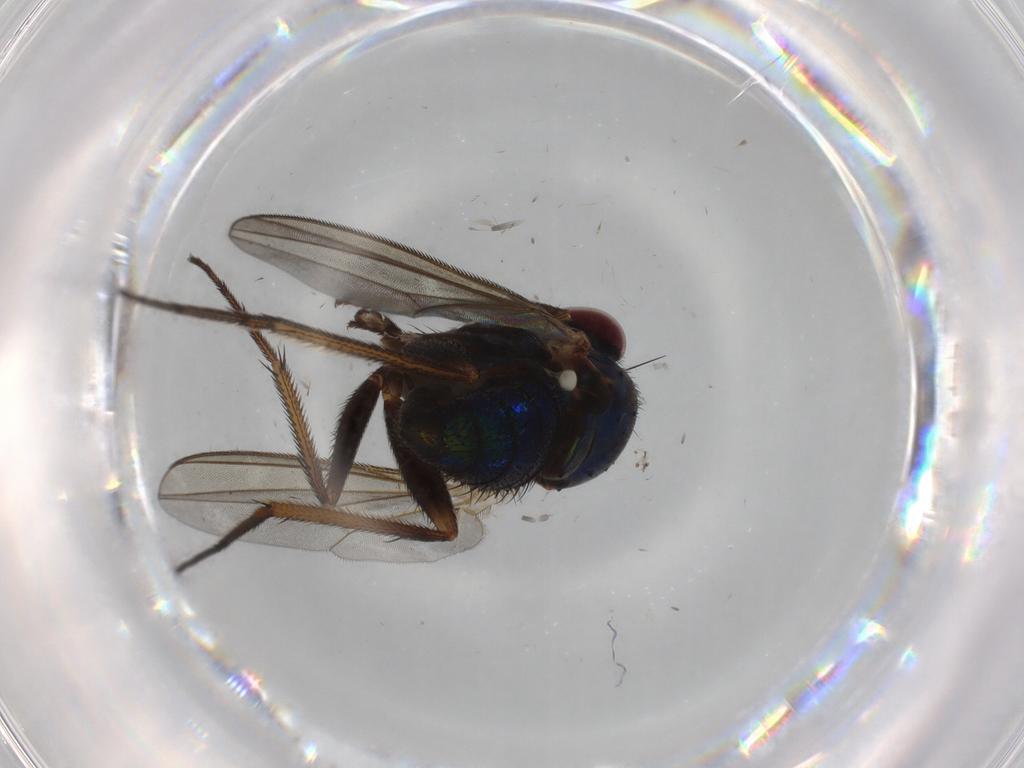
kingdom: Animalia
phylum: Arthropoda
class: Insecta
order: Diptera
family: Dolichopodidae
